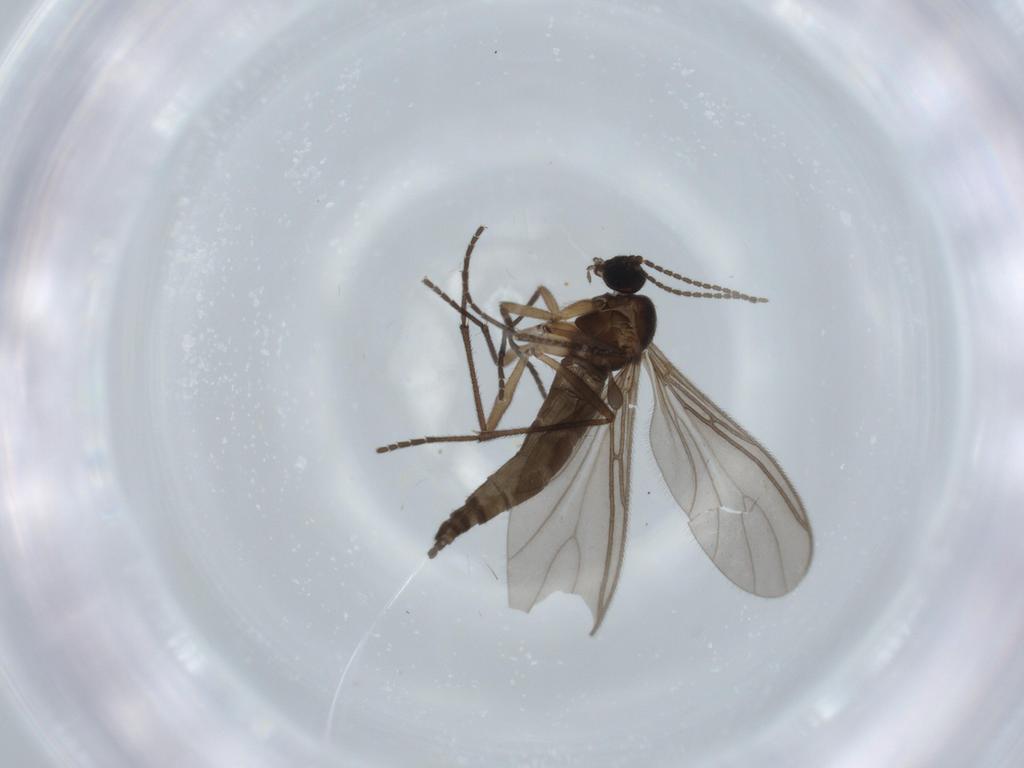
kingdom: Animalia
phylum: Arthropoda
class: Insecta
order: Diptera
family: Sciaridae
